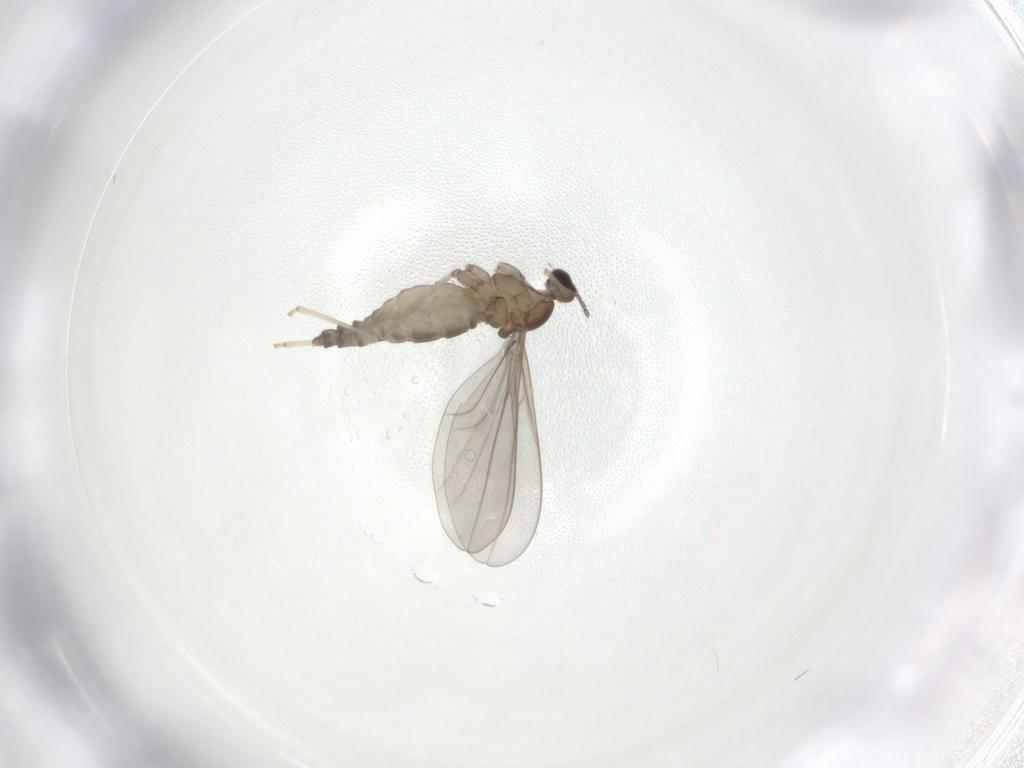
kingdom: Animalia
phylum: Arthropoda
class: Insecta
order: Diptera
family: Cecidomyiidae
